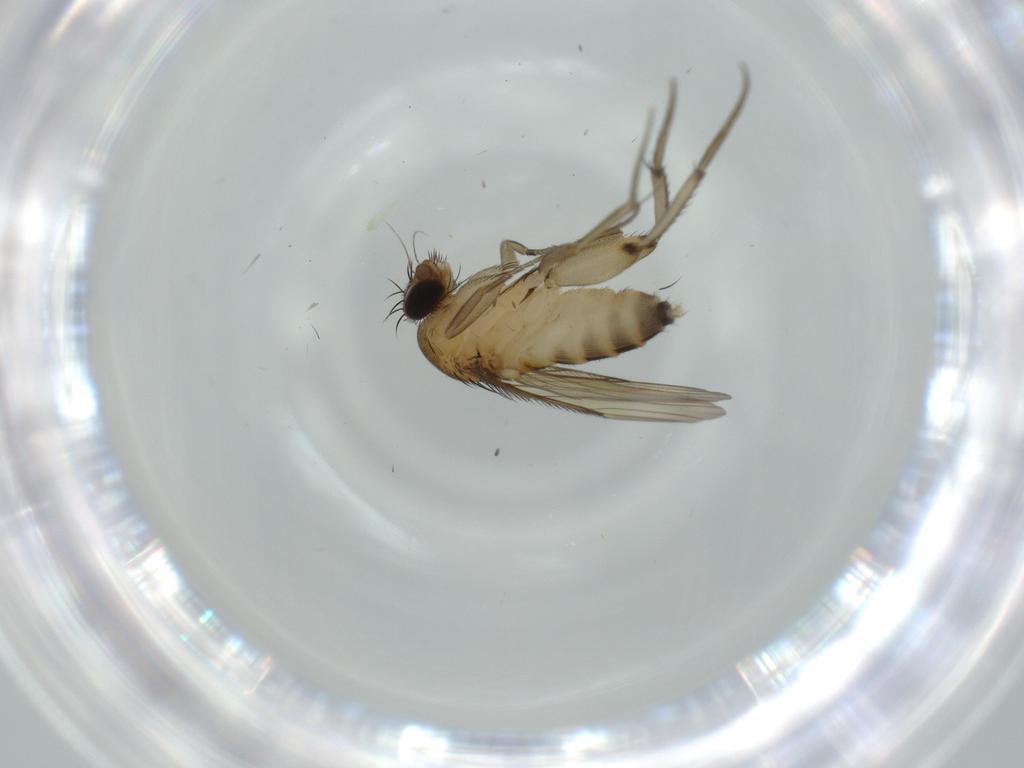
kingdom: Animalia
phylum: Arthropoda
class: Insecta
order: Diptera
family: Phoridae
